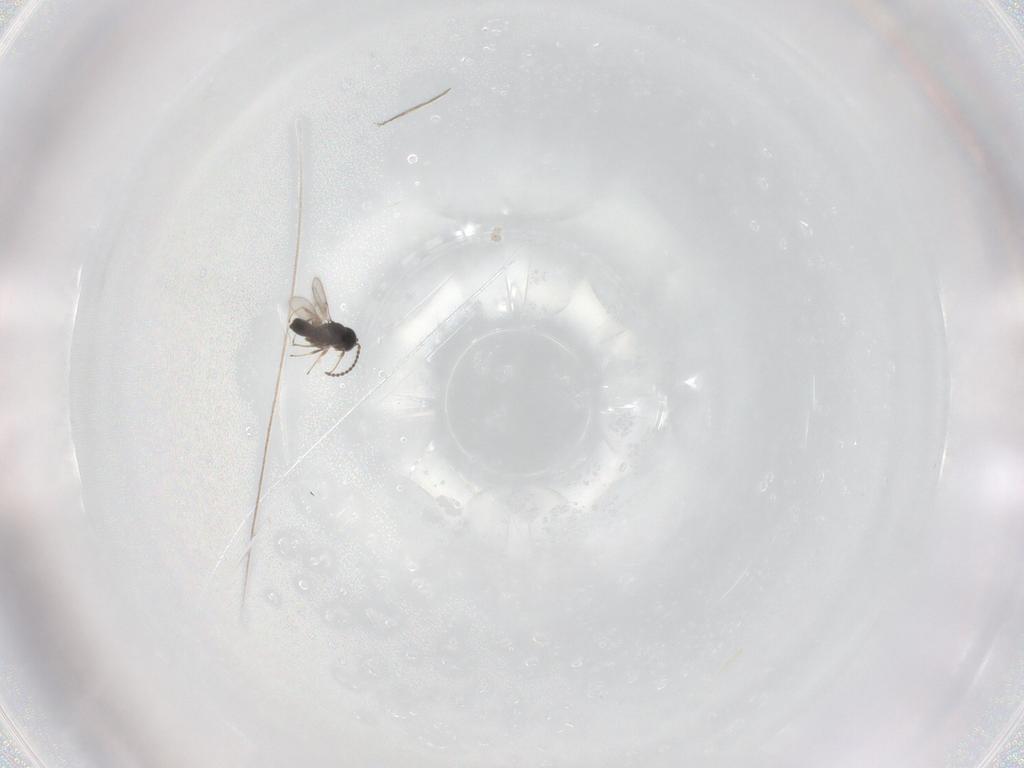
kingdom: Animalia
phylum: Arthropoda
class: Insecta
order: Hymenoptera
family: Scelionidae
